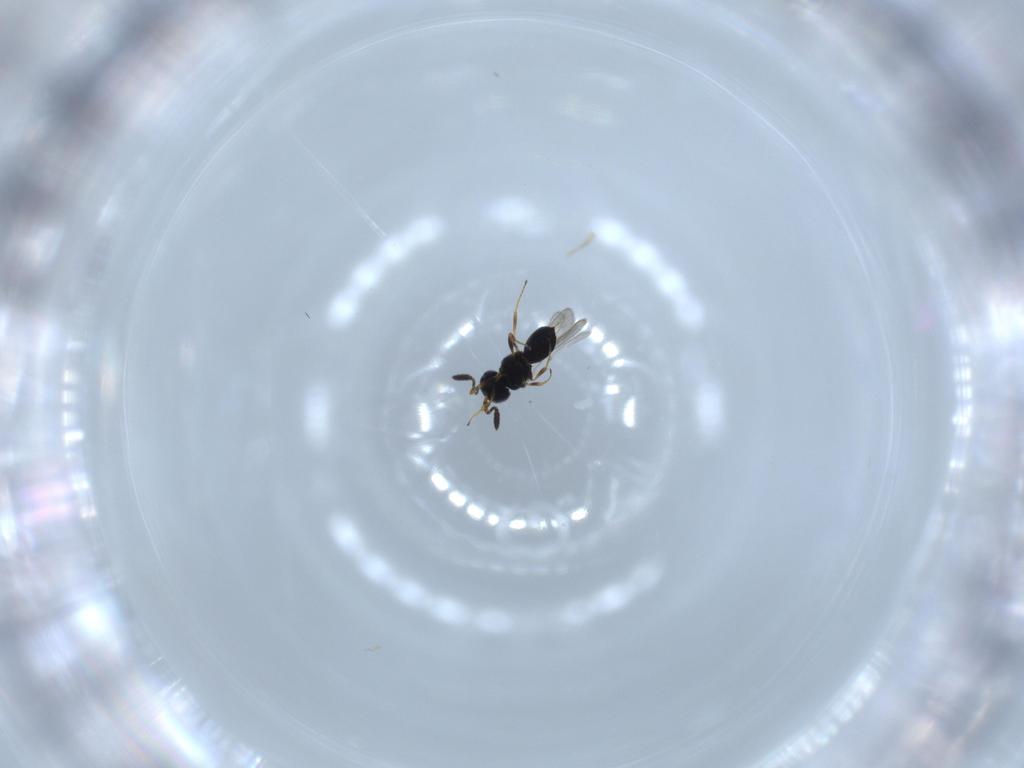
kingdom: Animalia
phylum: Arthropoda
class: Insecta
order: Hymenoptera
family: Scelionidae
